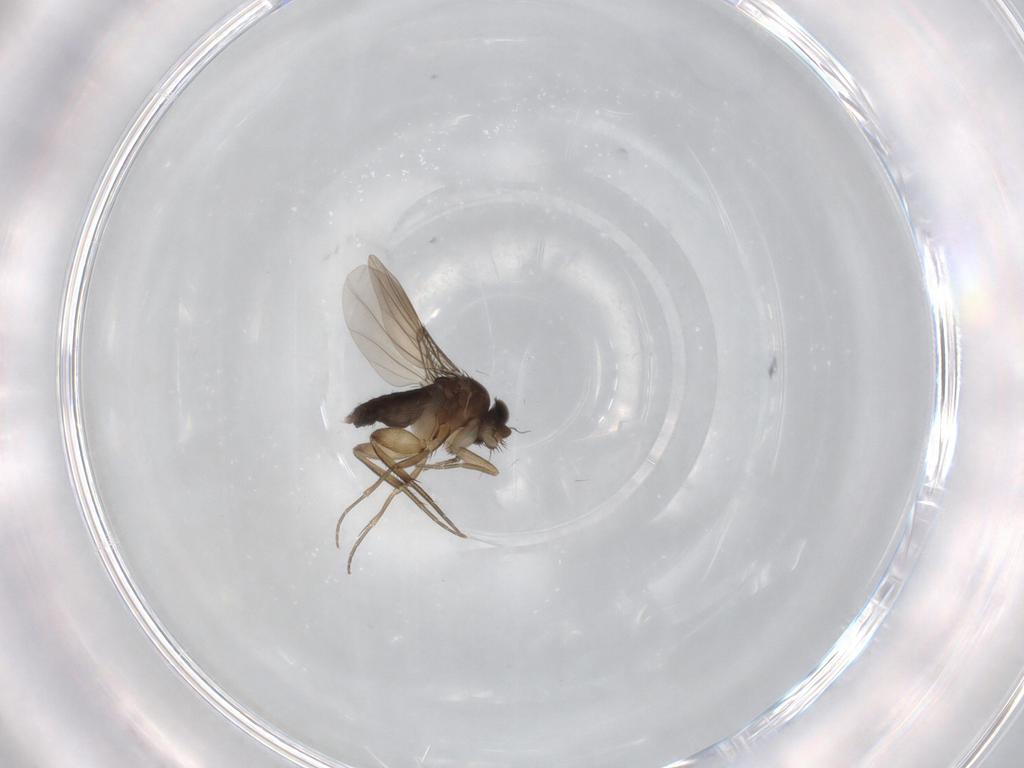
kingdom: Animalia
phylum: Arthropoda
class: Insecta
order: Diptera
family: Phoridae
